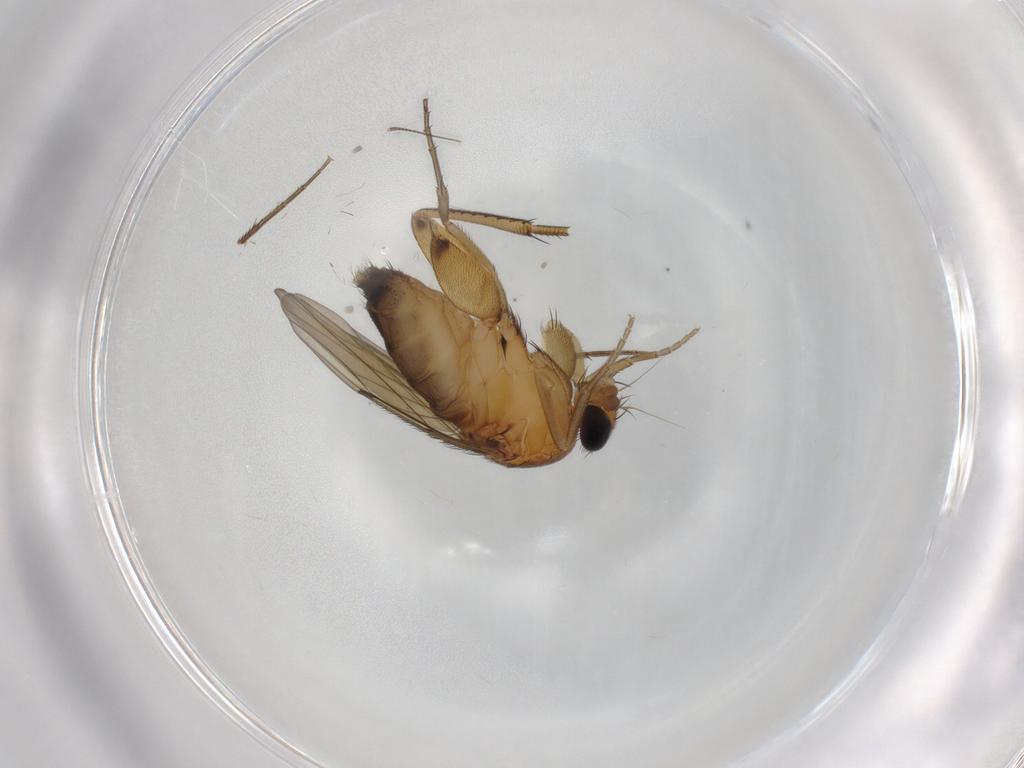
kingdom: Animalia
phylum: Arthropoda
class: Insecta
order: Diptera
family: Phoridae
